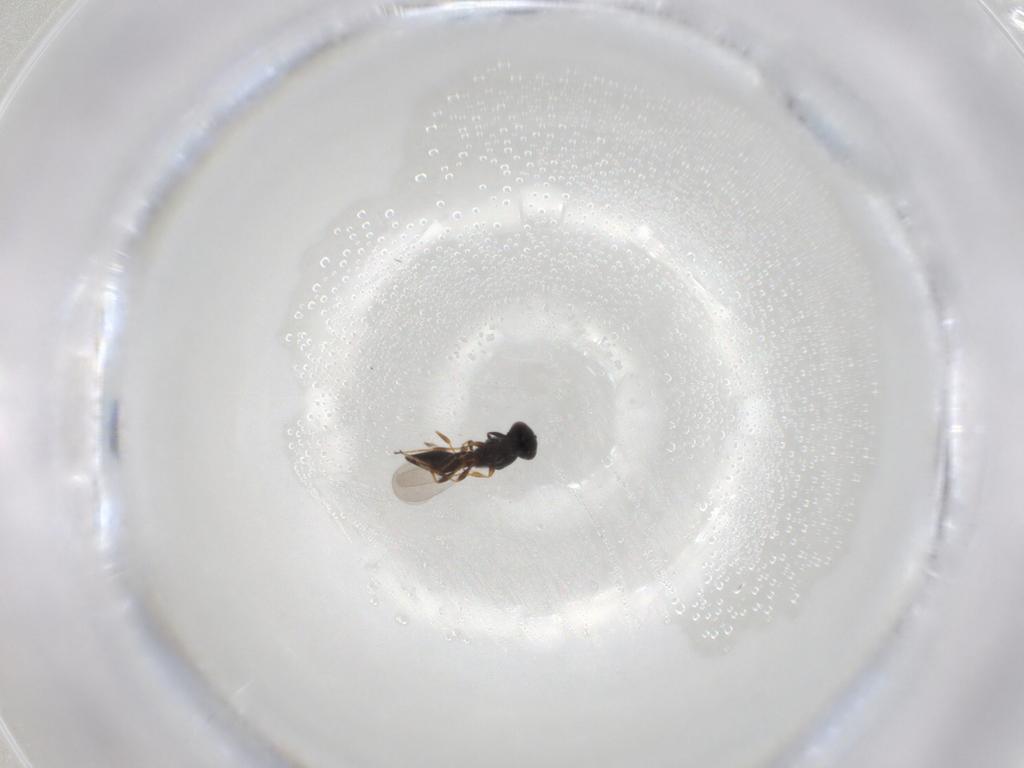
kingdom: Animalia
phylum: Arthropoda
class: Insecta
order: Hymenoptera
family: Platygastridae
